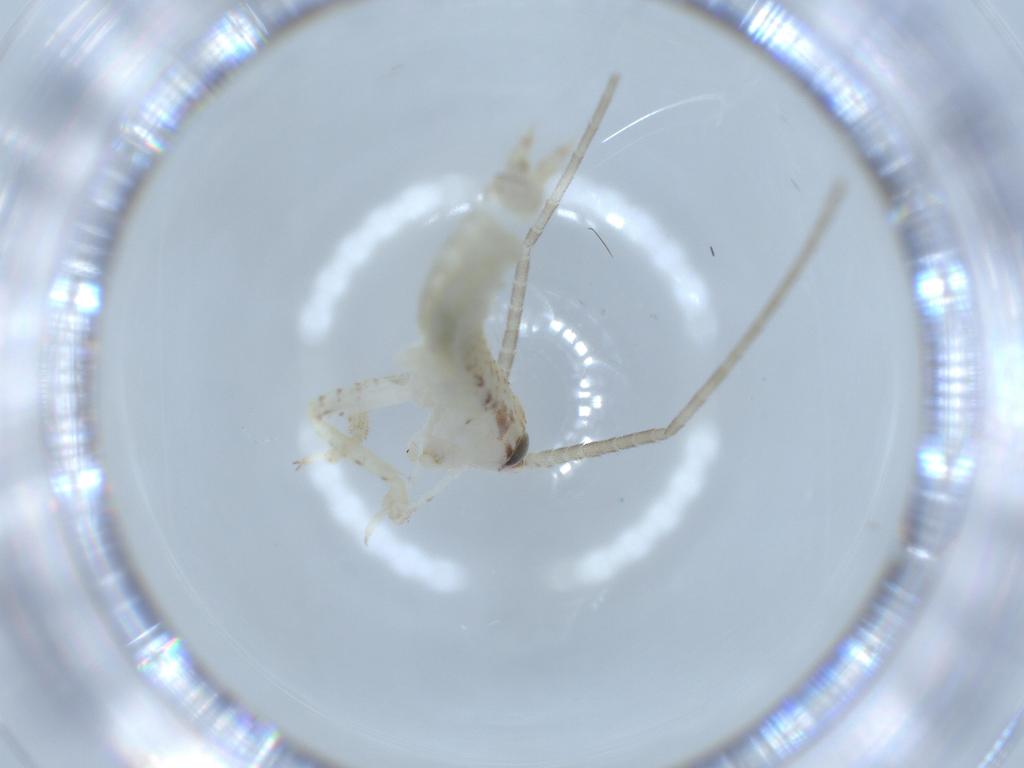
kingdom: Animalia
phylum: Arthropoda
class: Insecta
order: Orthoptera
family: Gryllidae
